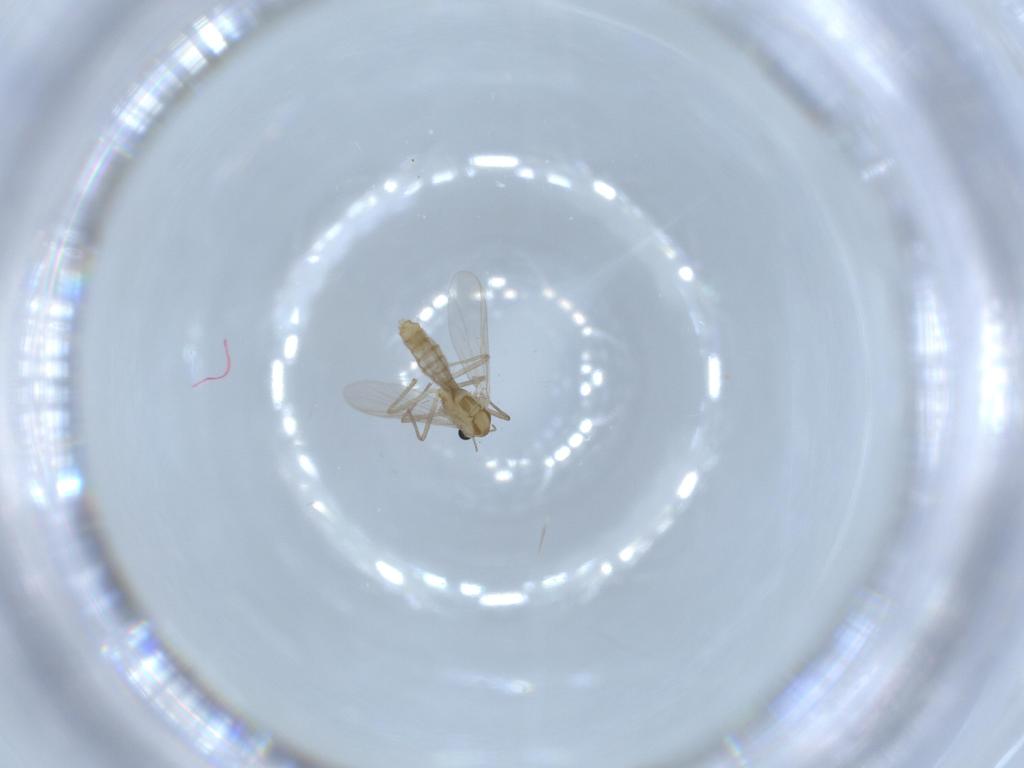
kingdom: Animalia
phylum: Arthropoda
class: Insecta
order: Diptera
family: Chironomidae
